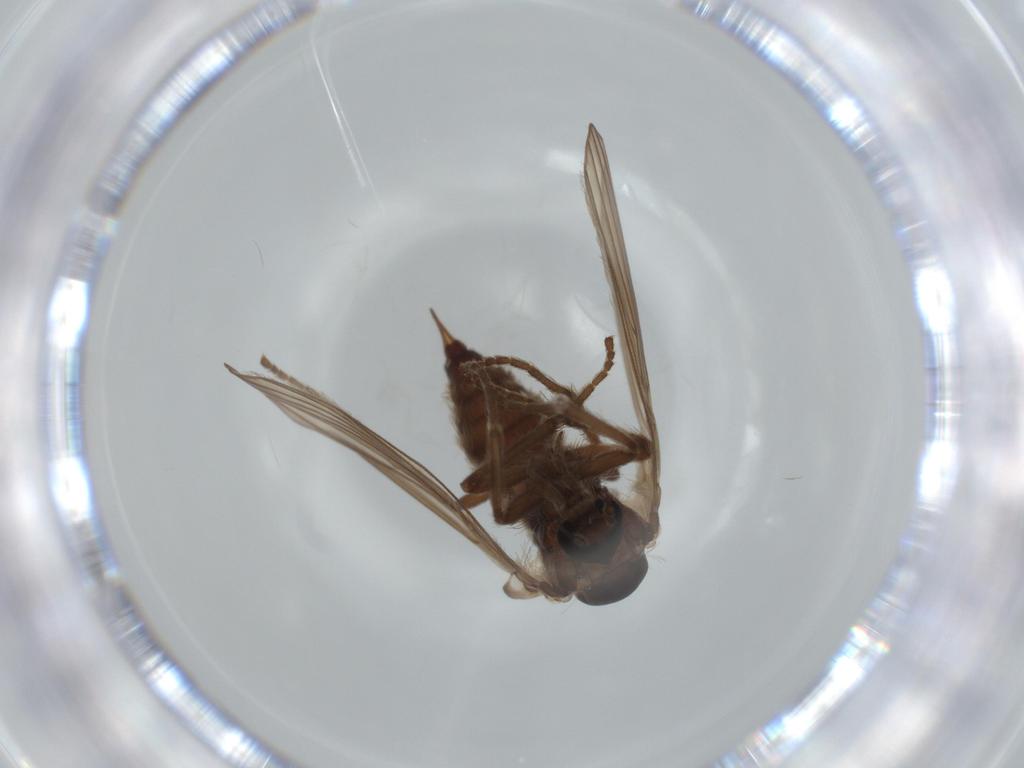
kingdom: Animalia
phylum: Arthropoda
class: Insecta
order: Diptera
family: Psychodidae
